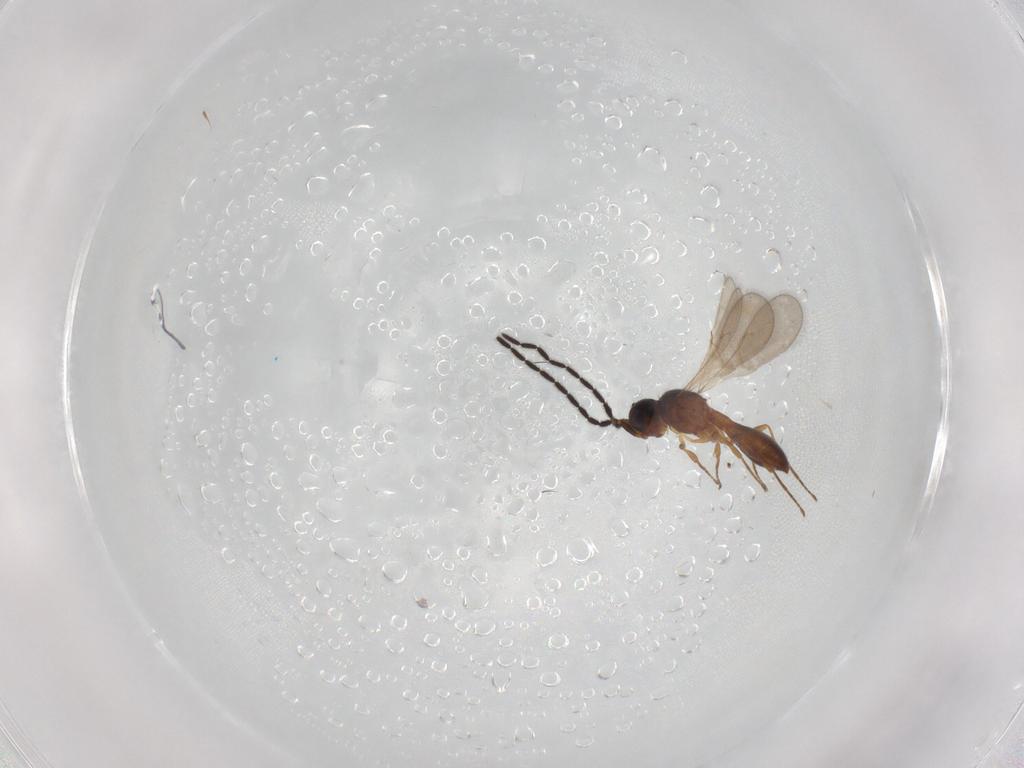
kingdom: Animalia
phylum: Arthropoda
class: Insecta
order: Hymenoptera
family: Scelionidae
